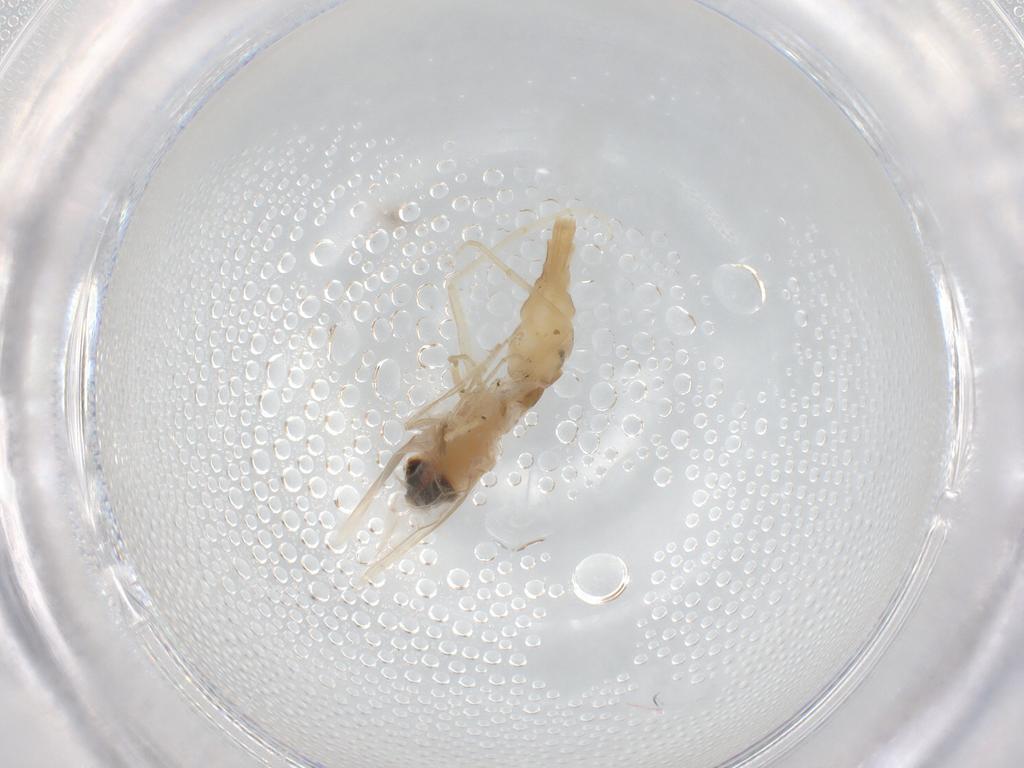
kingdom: Animalia
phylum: Arthropoda
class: Insecta
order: Diptera
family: Scenopinidae
